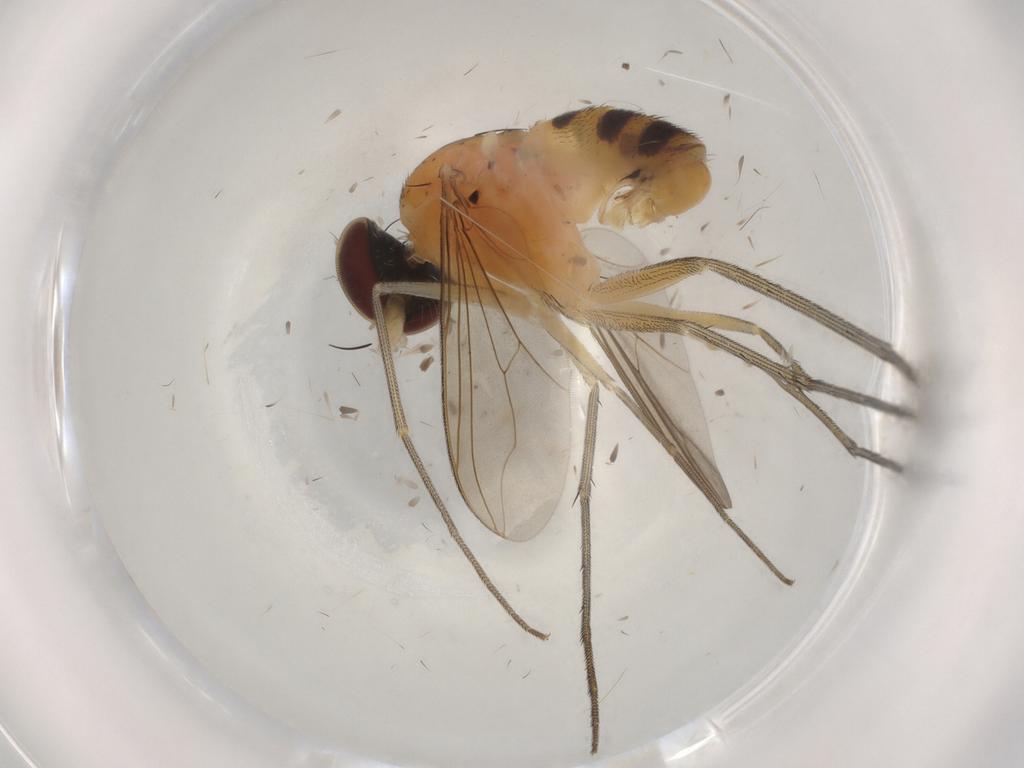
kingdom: Animalia
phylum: Arthropoda
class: Insecta
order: Diptera
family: Dolichopodidae
